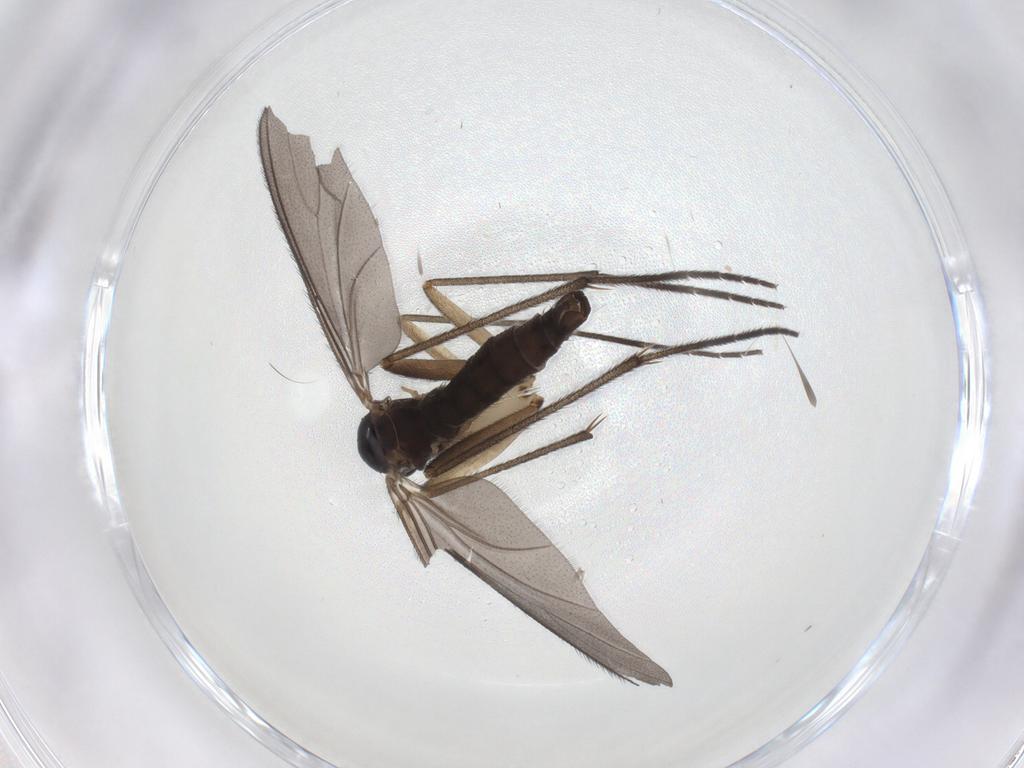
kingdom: Animalia
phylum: Arthropoda
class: Insecta
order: Diptera
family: Sciaridae
